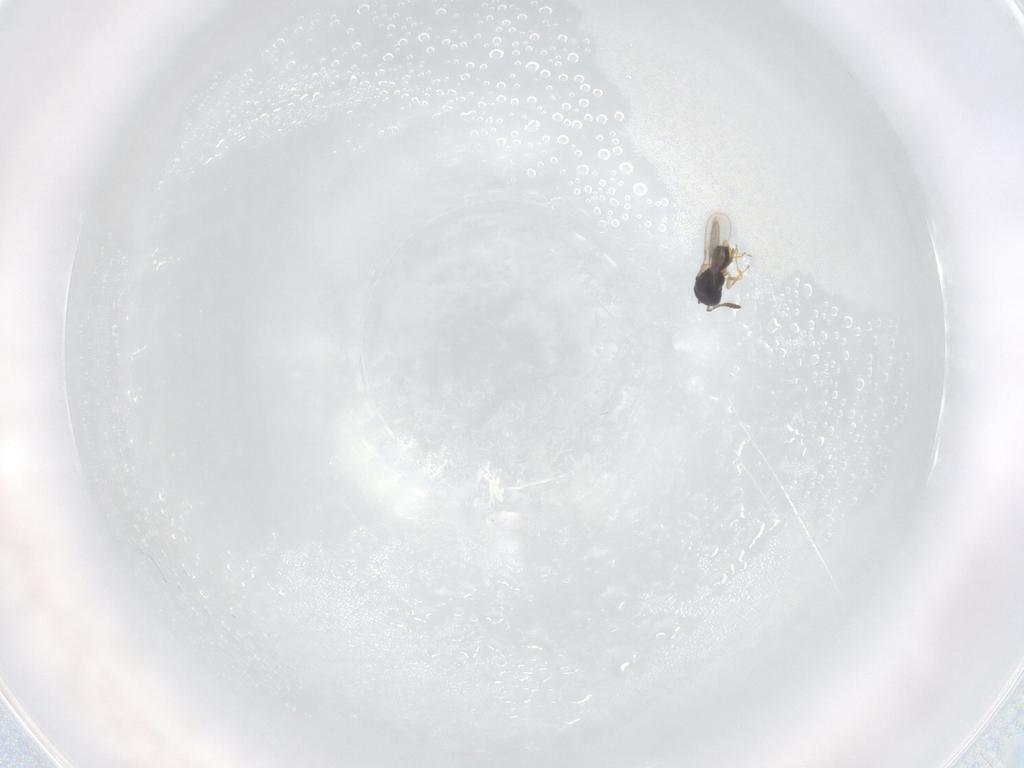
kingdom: Animalia
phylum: Arthropoda
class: Insecta
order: Hymenoptera
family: Scelionidae
